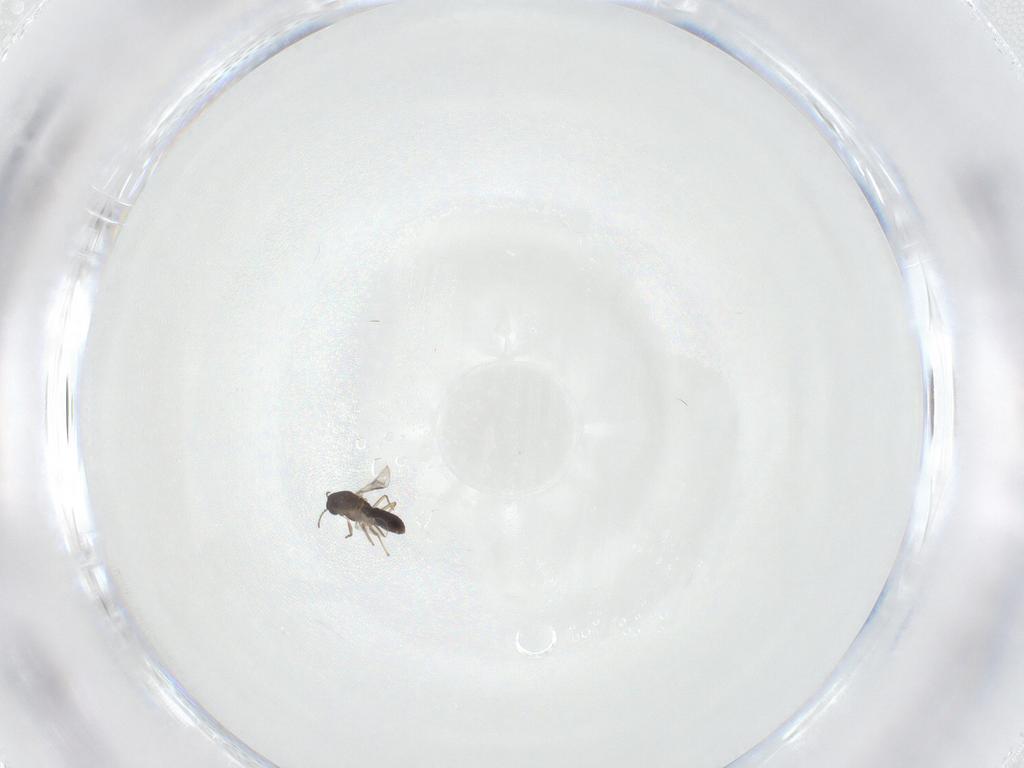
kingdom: Animalia
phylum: Arthropoda
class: Insecta
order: Diptera
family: Chironomidae
